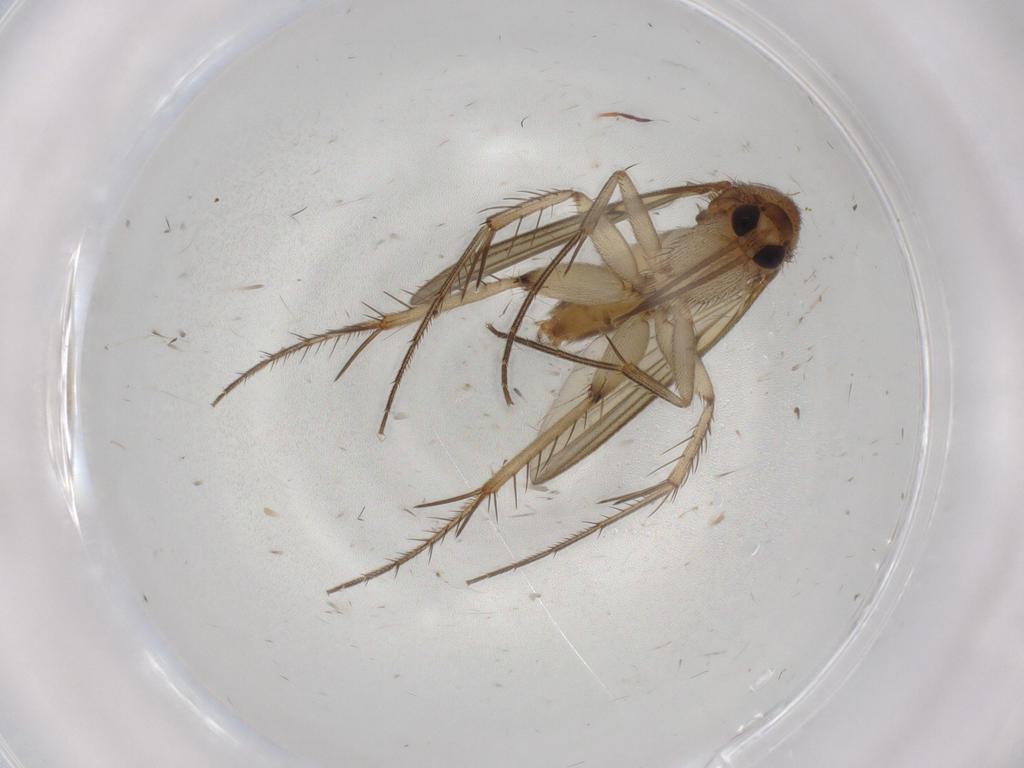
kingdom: Animalia
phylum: Arthropoda
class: Insecta
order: Diptera
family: Mycetophilidae
